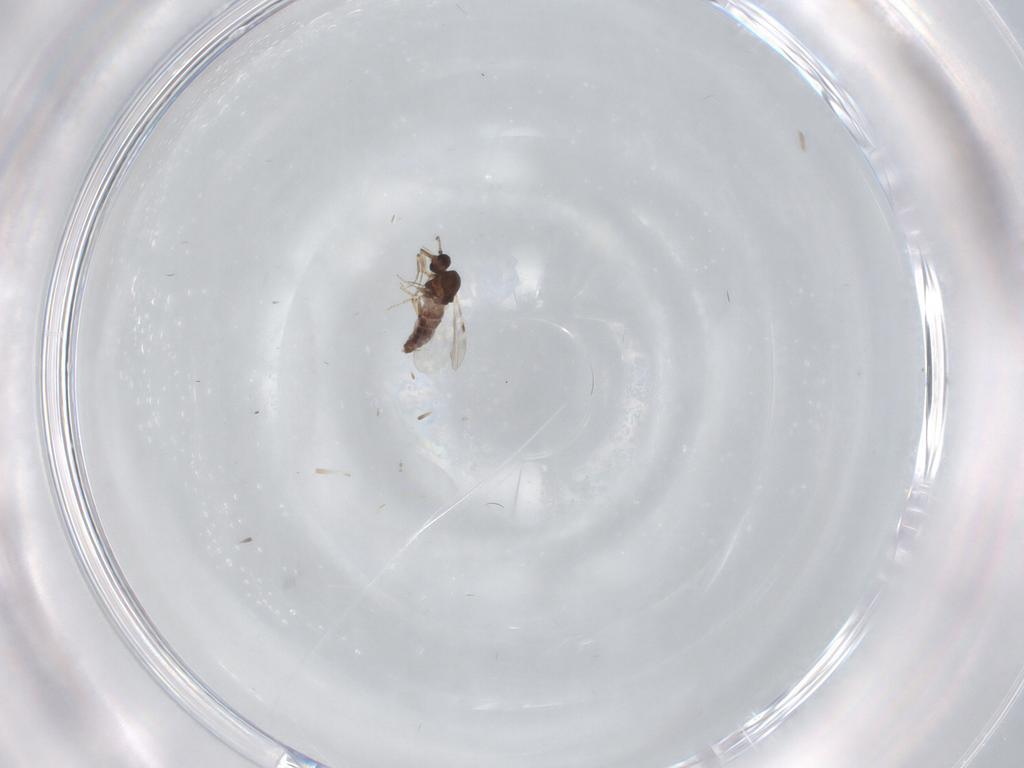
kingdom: Animalia
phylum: Arthropoda
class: Insecta
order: Diptera
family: Cecidomyiidae
